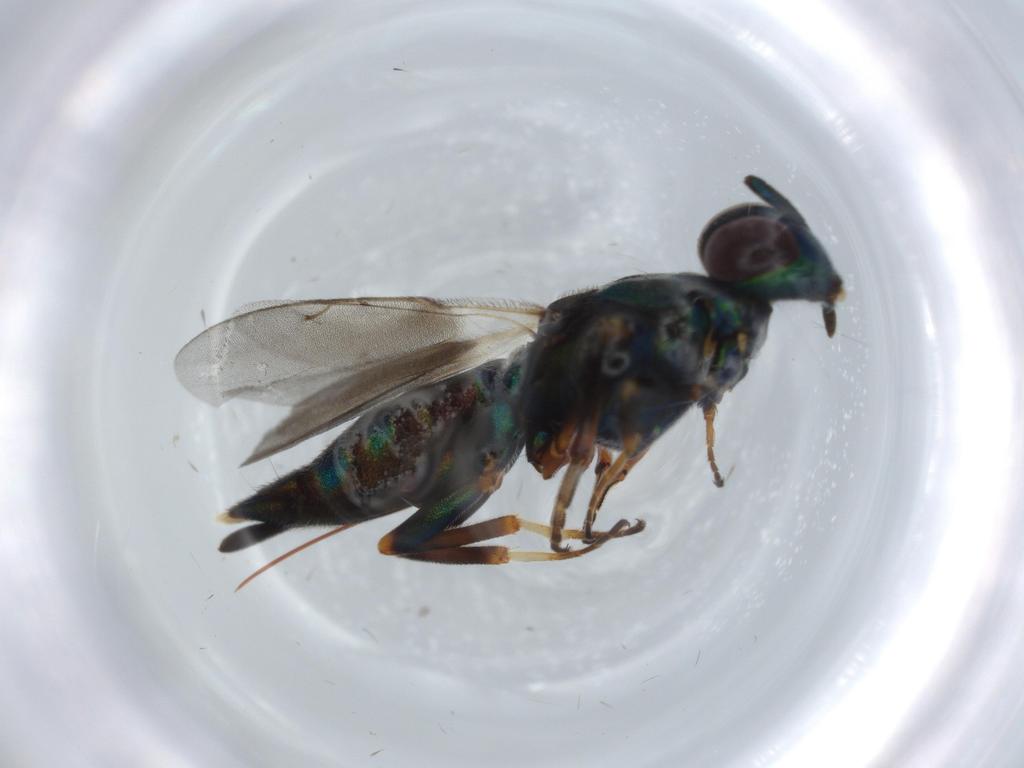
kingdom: Animalia
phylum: Arthropoda
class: Insecta
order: Hymenoptera
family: Eupelmidae
